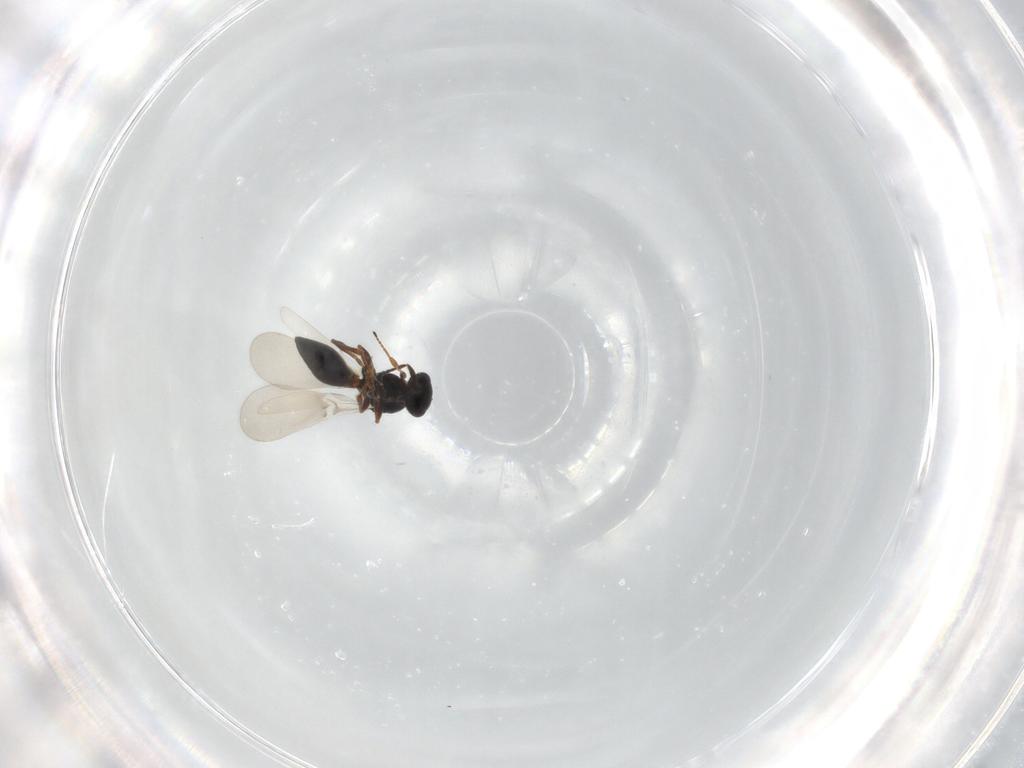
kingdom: Animalia
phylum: Arthropoda
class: Insecta
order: Hymenoptera
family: Platygastridae
